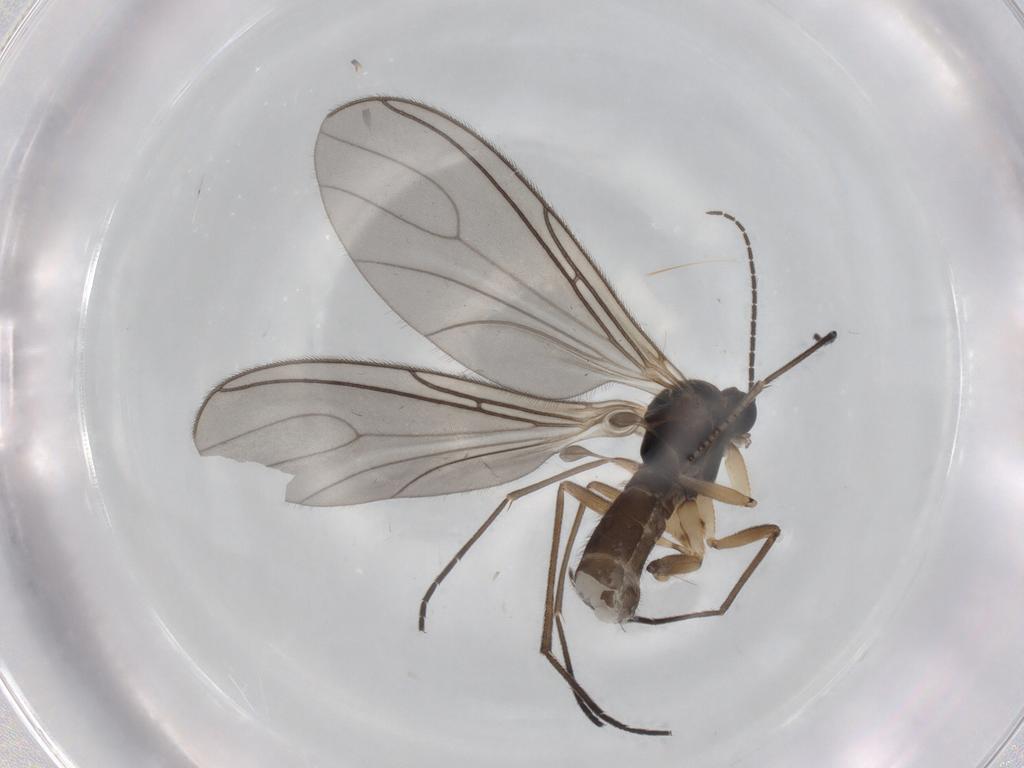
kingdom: Animalia
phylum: Arthropoda
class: Insecta
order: Diptera
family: Sciaridae
